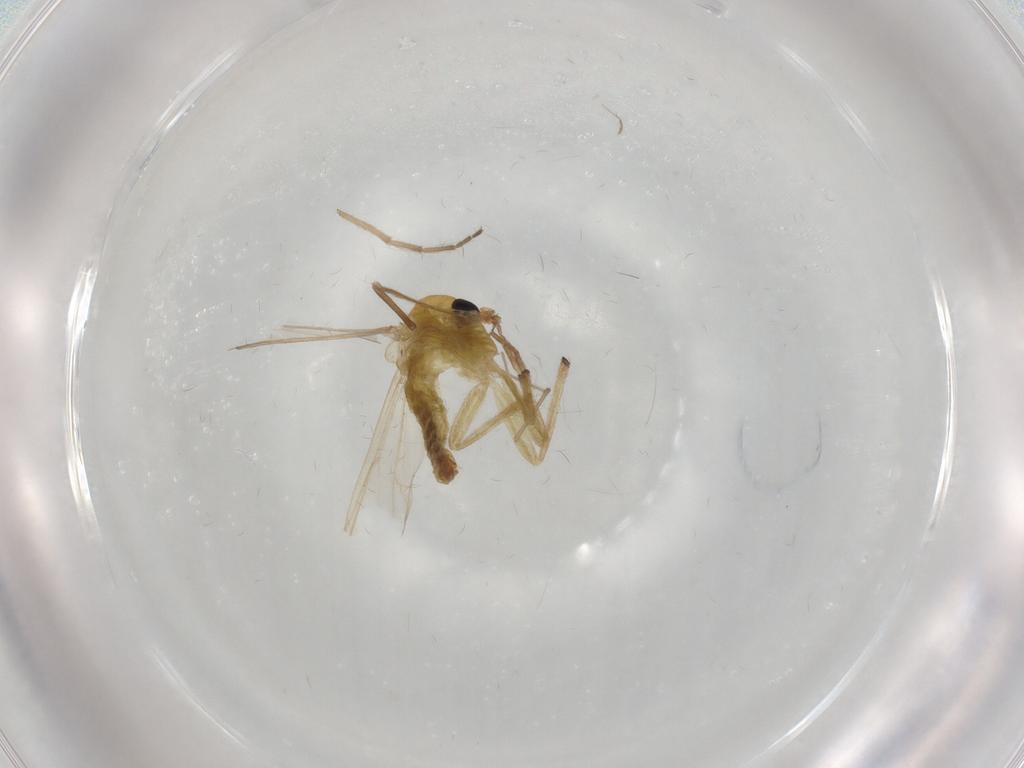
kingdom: Animalia
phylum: Arthropoda
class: Insecta
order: Diptera
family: Chironomidae
